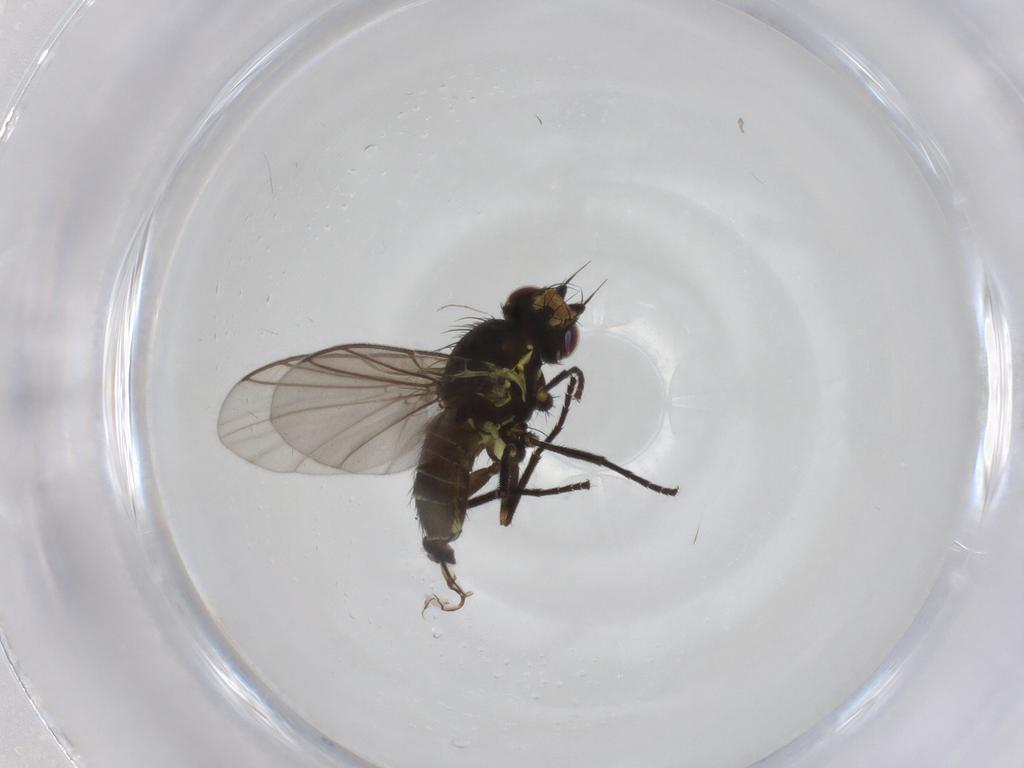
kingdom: Animalia
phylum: Arthropoda
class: Insecta
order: Diptera
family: Agromyzidae
